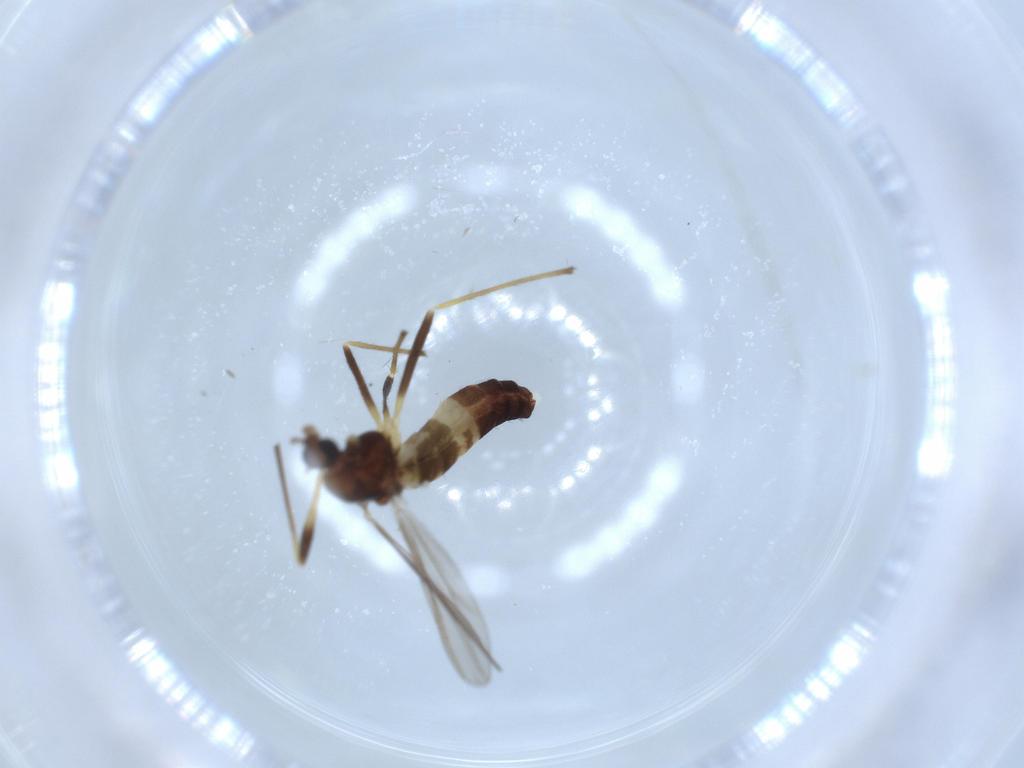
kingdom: Animalia
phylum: Arthropoda
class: Insecta
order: Diptera
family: Chironomidae
